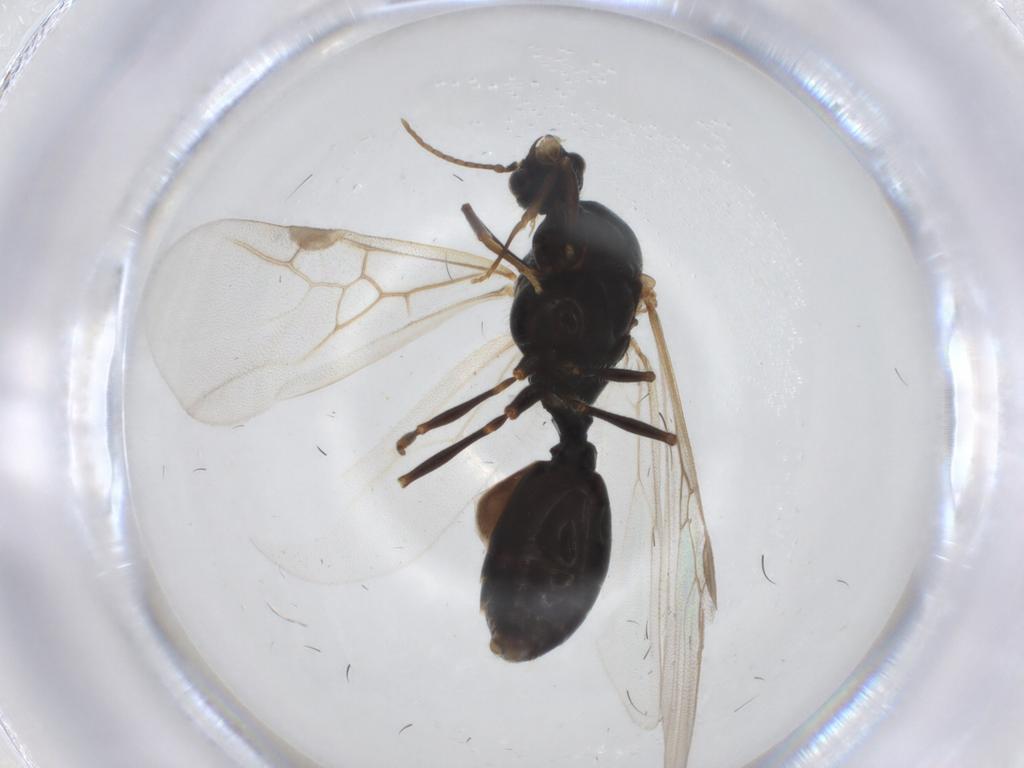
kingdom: Animalia
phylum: Arthropoda
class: Insecta
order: Hymenoptera
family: Formicidae
